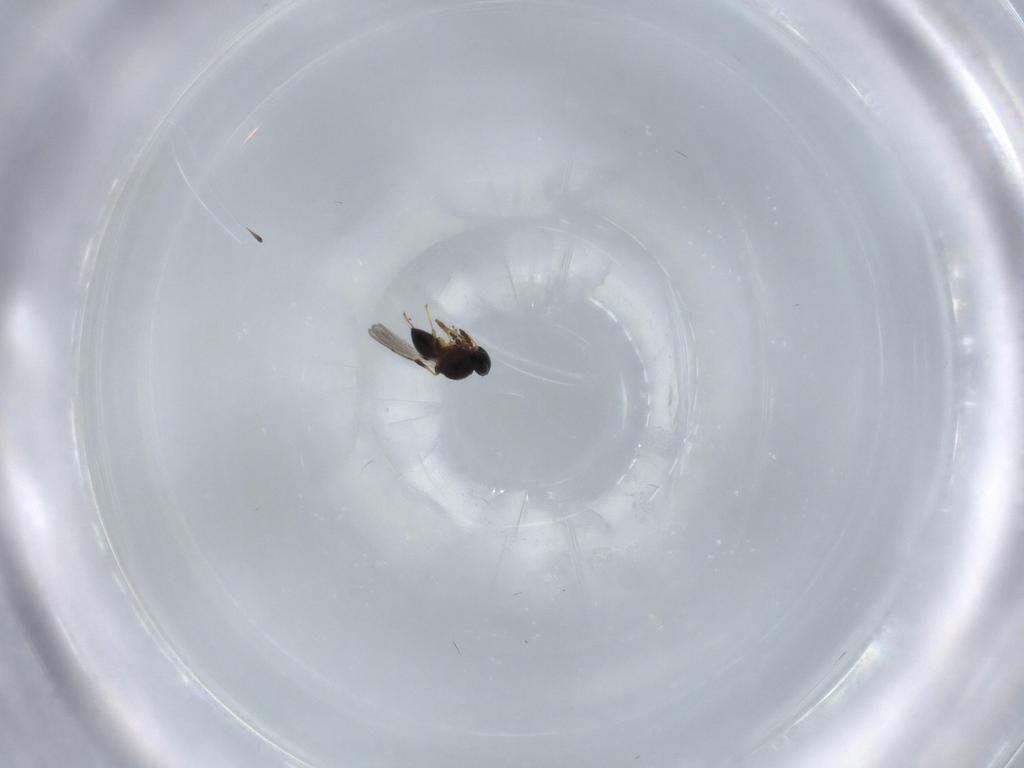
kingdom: Animalia
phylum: Arthropoda
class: Insecta
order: Hymenoptera
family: Platygastridae
